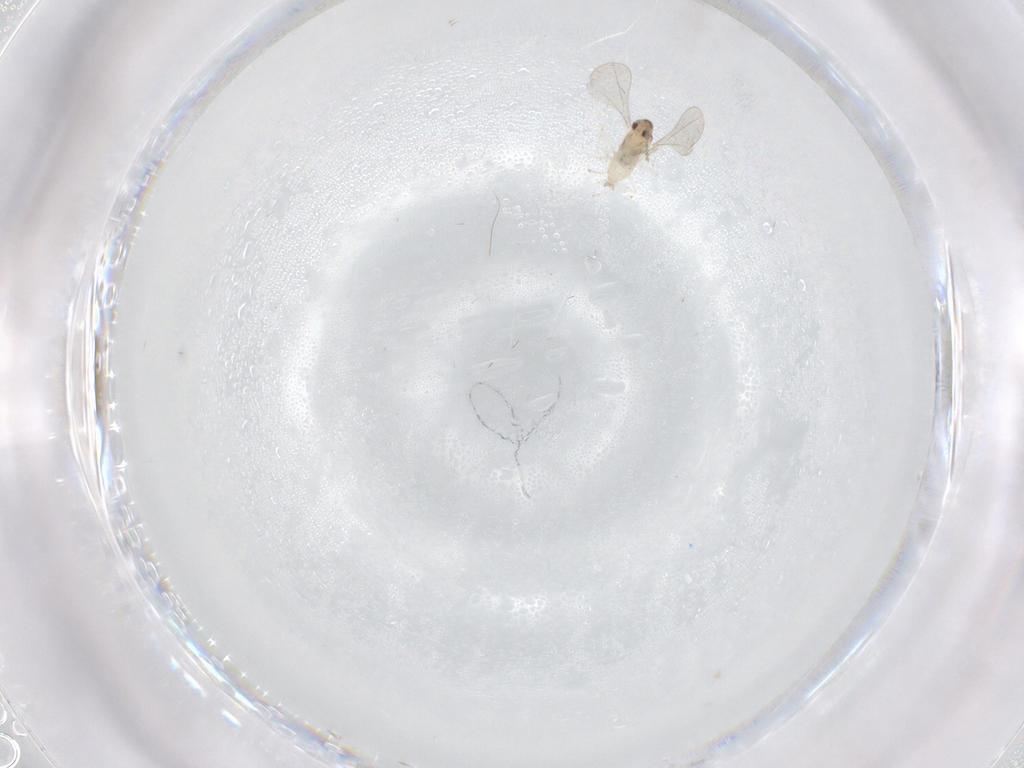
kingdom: Animalia
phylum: Arthropoda
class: Insecta
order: Diptera
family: Cecidomyiidae
